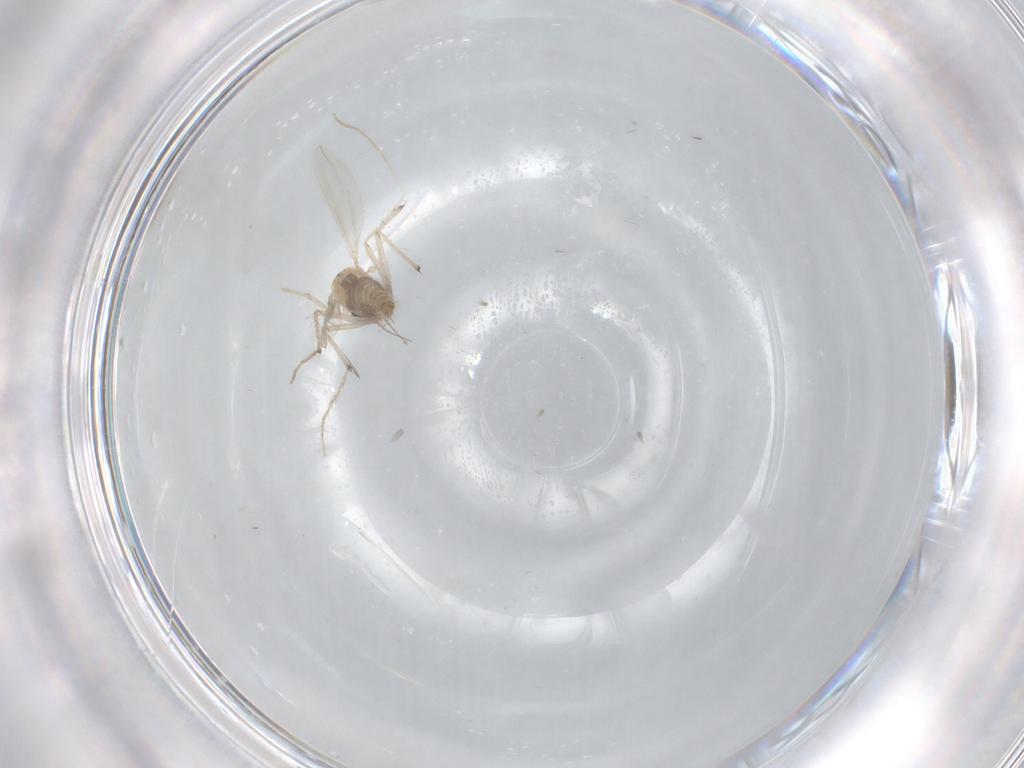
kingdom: Animalia
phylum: Arthropoda
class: Insecta
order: Diptera
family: Chironomidae
